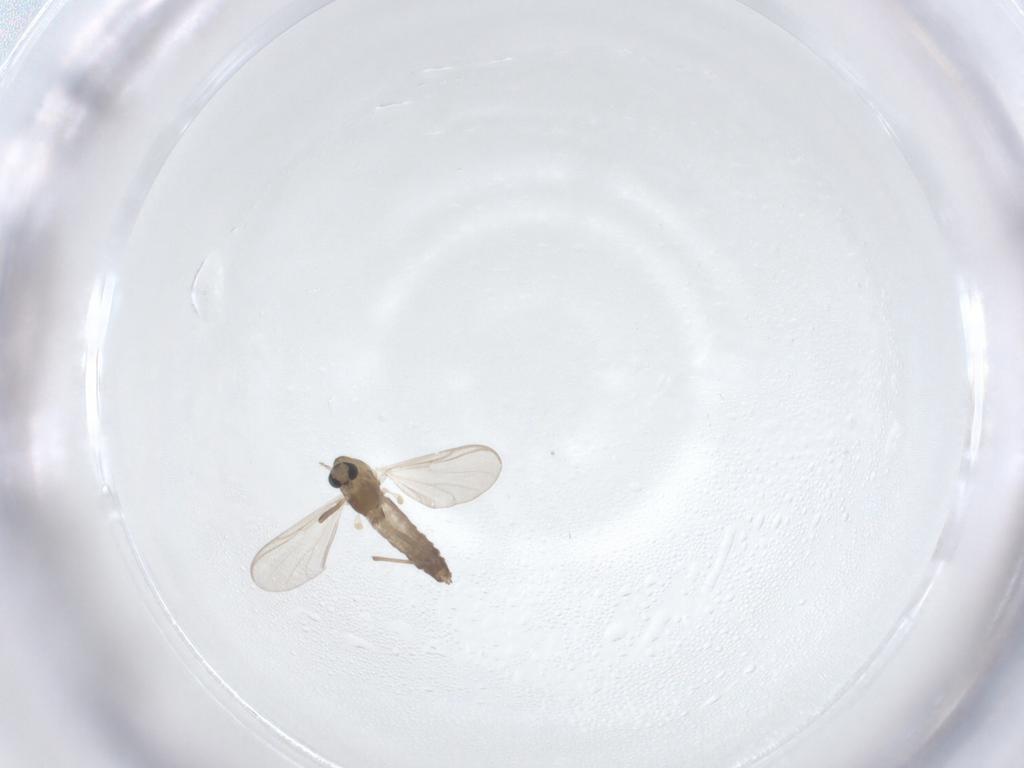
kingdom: Animalia
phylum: Arthropoda
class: Insecta
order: Diptera
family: Chironomidae
